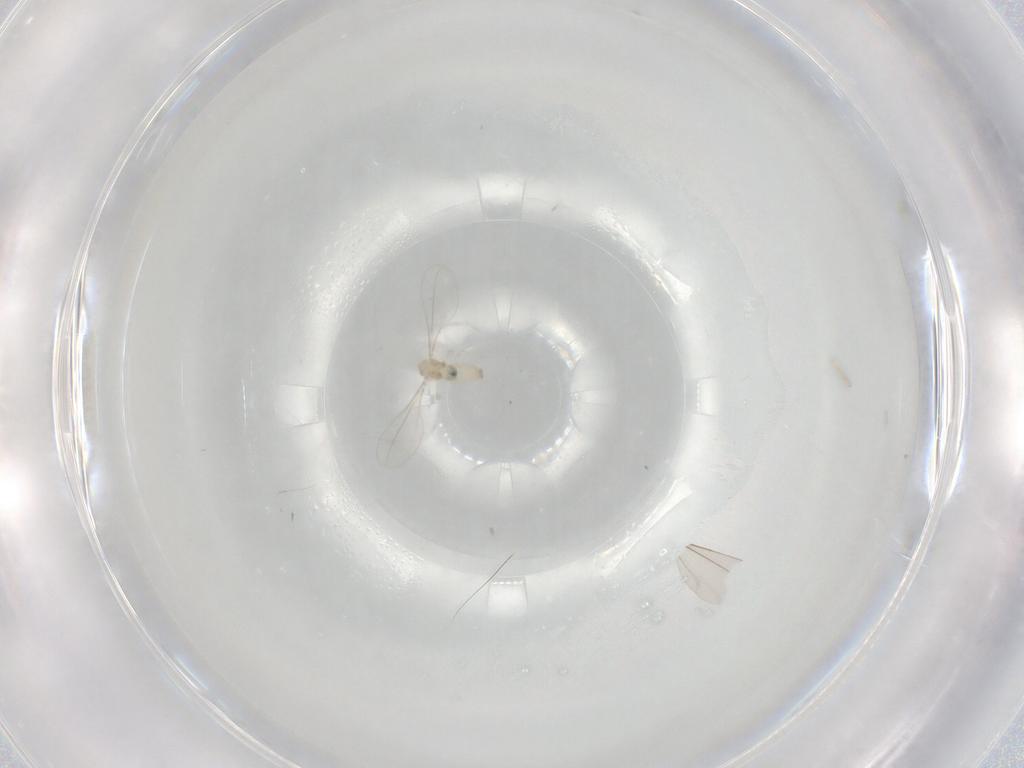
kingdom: Animalia
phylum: Arthropoda
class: Insecta
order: Diptera
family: Cecidomyiidae
